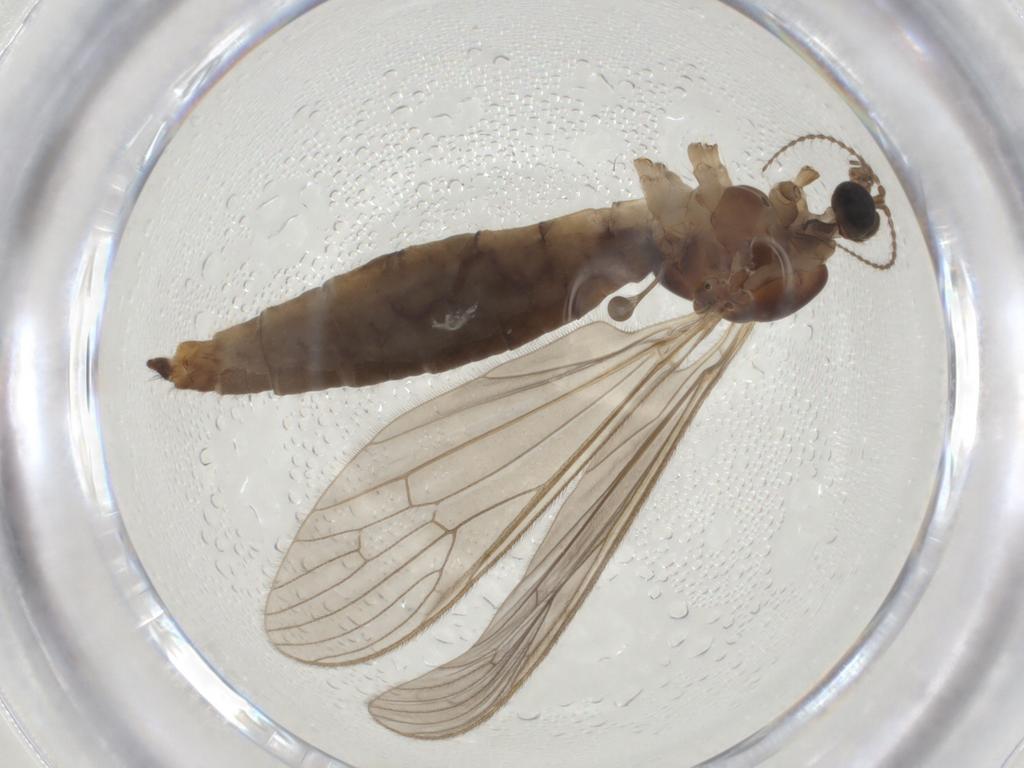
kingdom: Animalia
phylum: Arthropoda
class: Insecta
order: Diptera
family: Limoniidae
